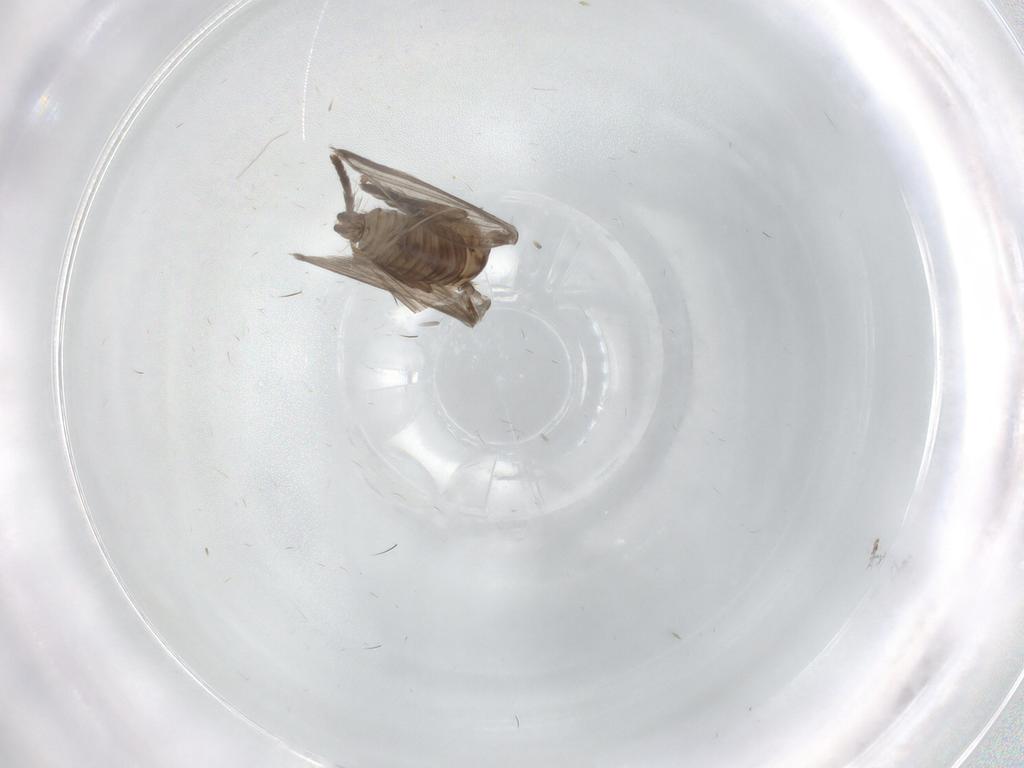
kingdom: Animalia
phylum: Arthropoda
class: Insecta
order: Diptera
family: Psychodidae
